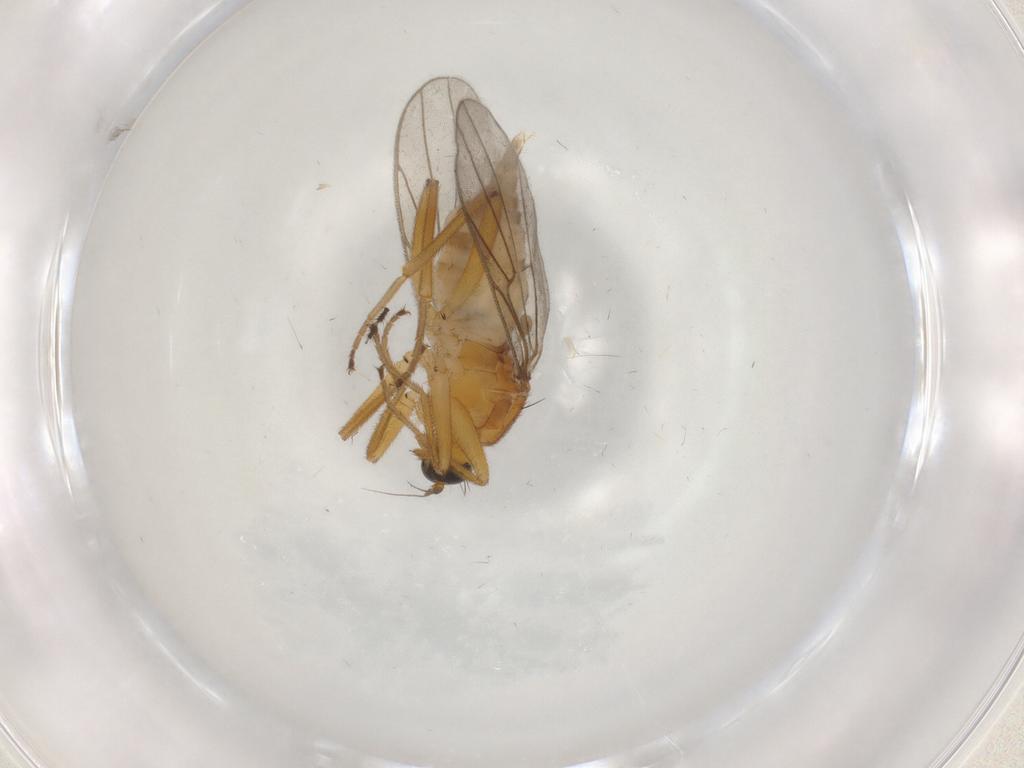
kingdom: Animalia
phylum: Arthropoda
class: Insecta
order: Diptera
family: Hybotidae
